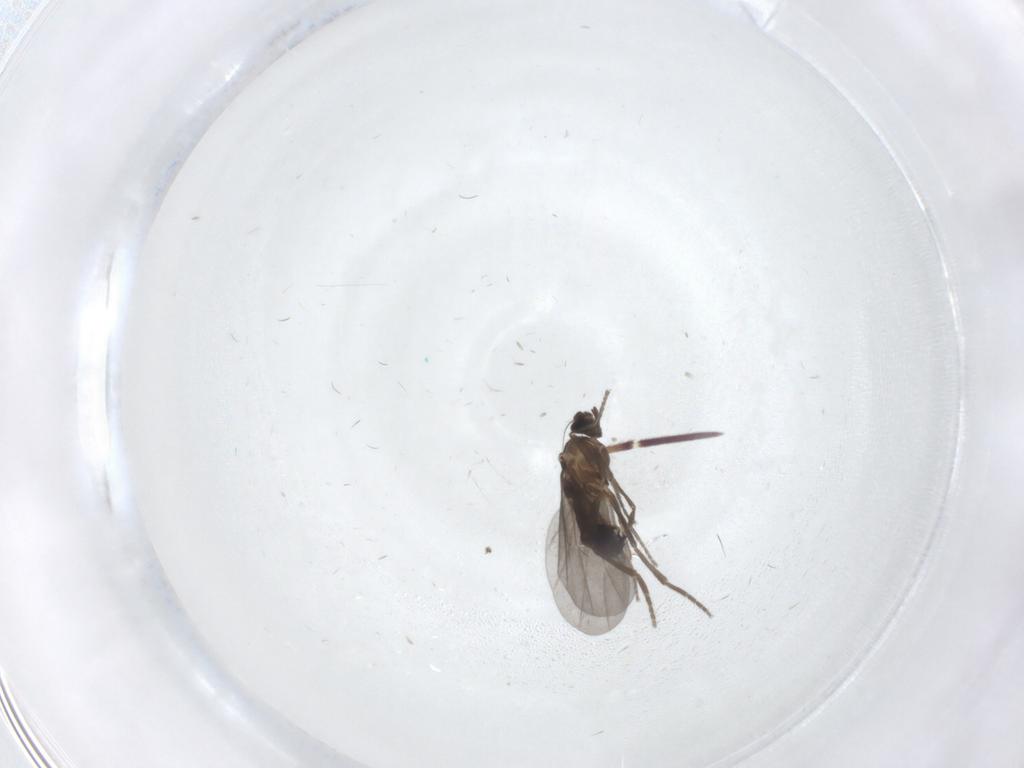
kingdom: Animalia
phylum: Arthropoda
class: Insecta
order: Diptera
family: Phoridae
